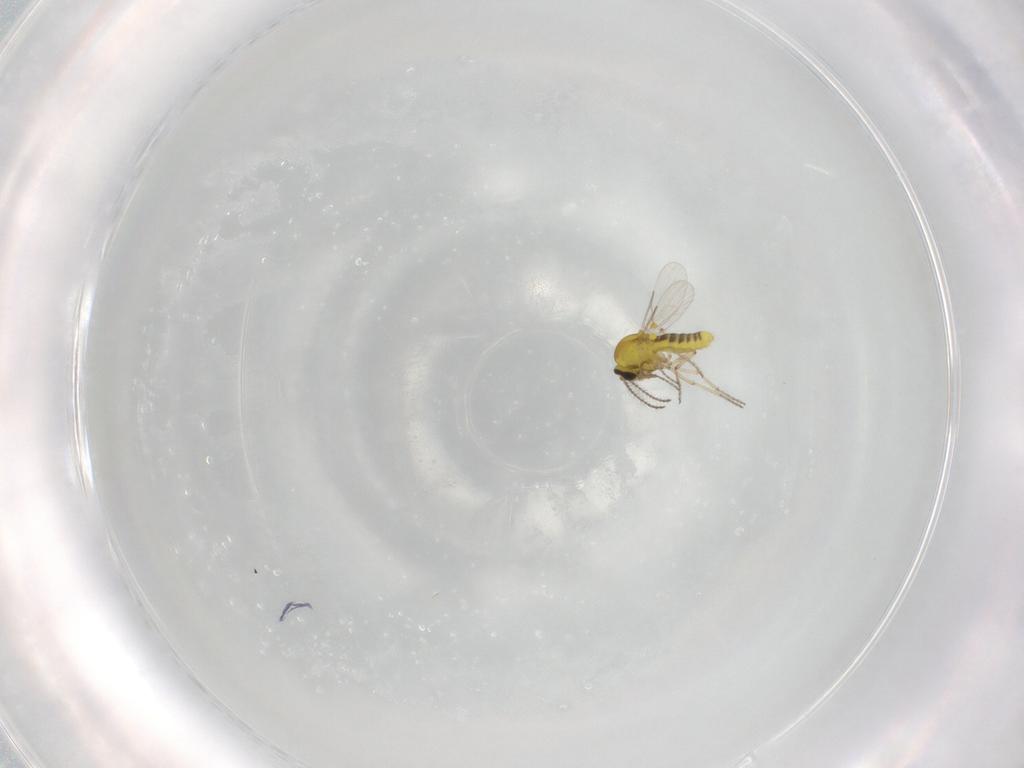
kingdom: Animalia
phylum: Arthropoda
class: Insecta
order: Diptera
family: Ceratopogonidae
